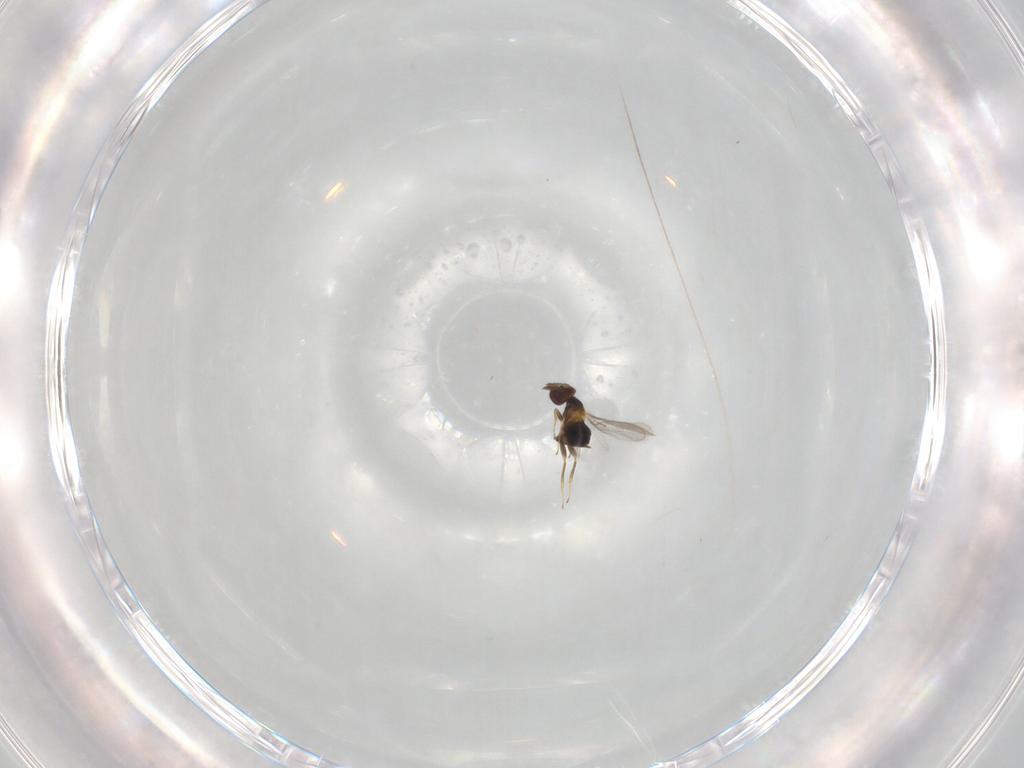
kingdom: Animalia
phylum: Arthropoda
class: Insecta
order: Hymenoptera
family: Trichogrammatidae
